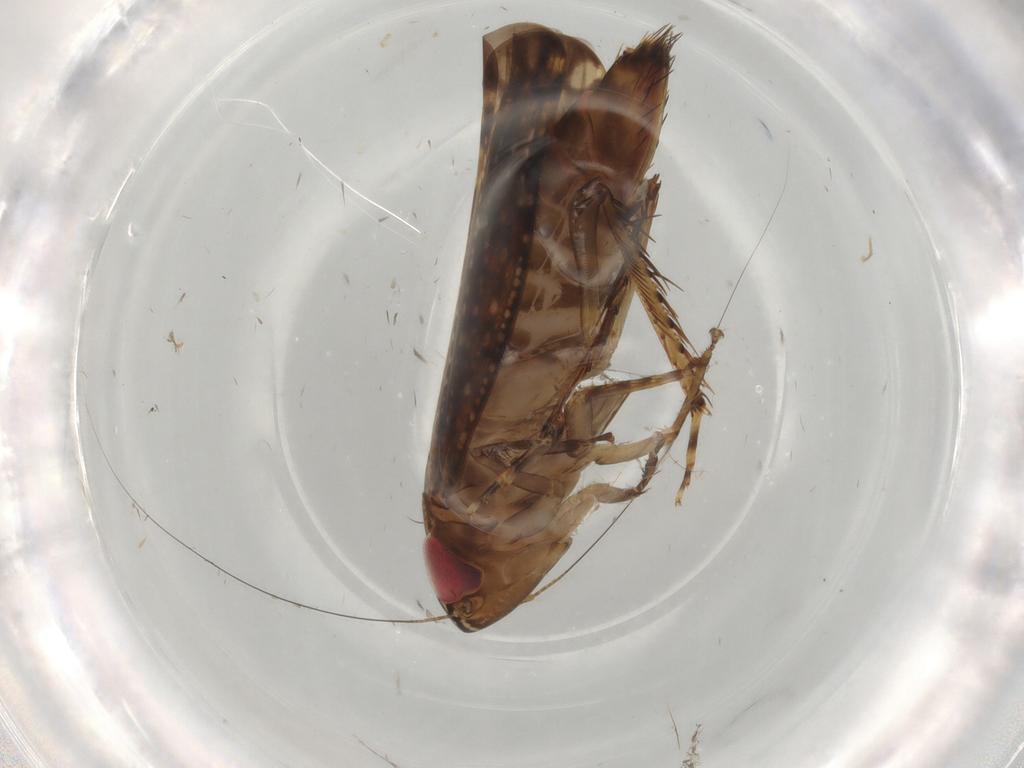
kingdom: Animalia
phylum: Arthropoda
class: Insecta
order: Hemiptera
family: Cicadellidae
